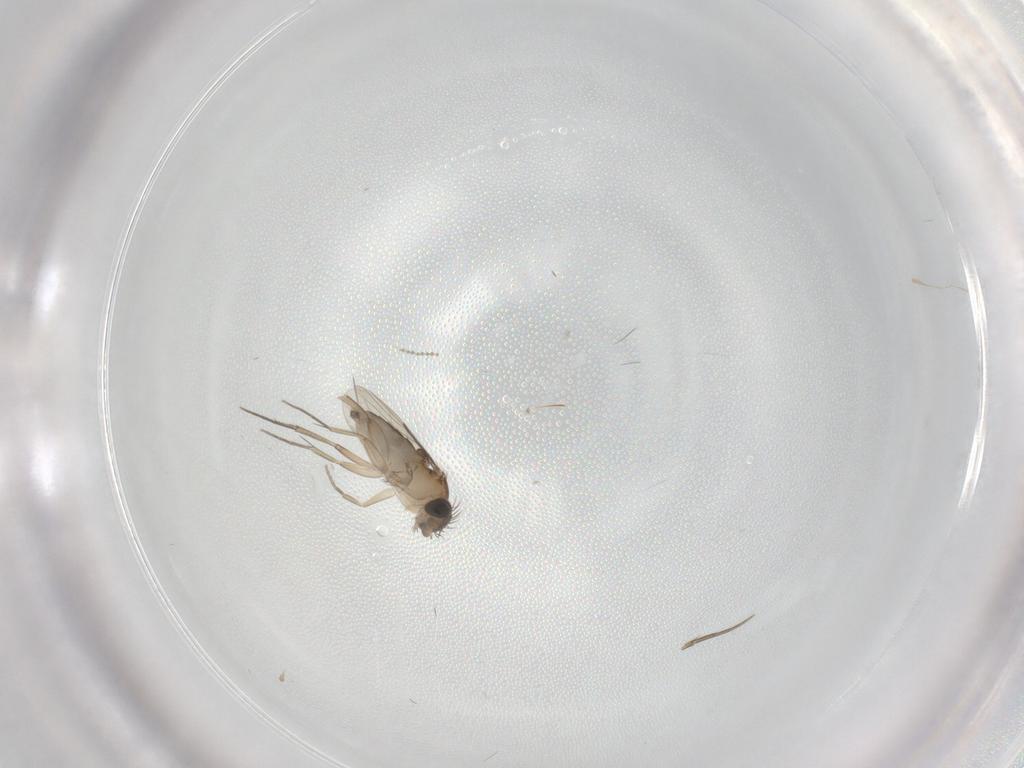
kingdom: Animalia
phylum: Arthropoda
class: Insecta
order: Diptera
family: Phoridae
